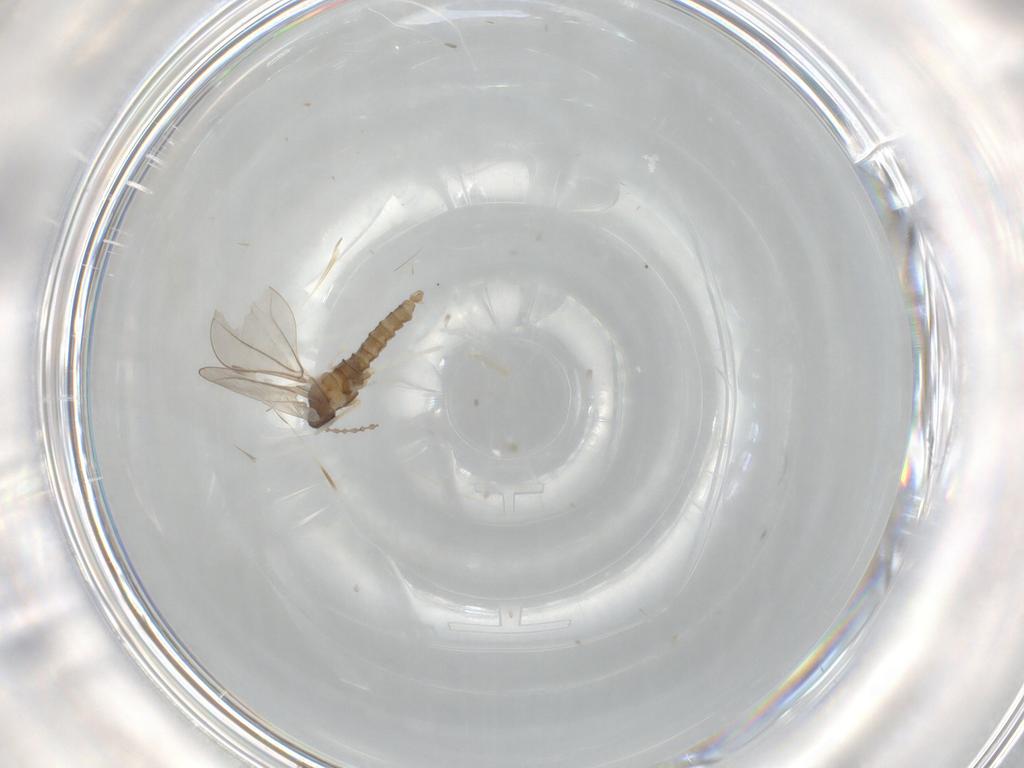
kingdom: Animalia
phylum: Arthropoda
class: Insecta
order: Diptera
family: Cecidomyiidae
